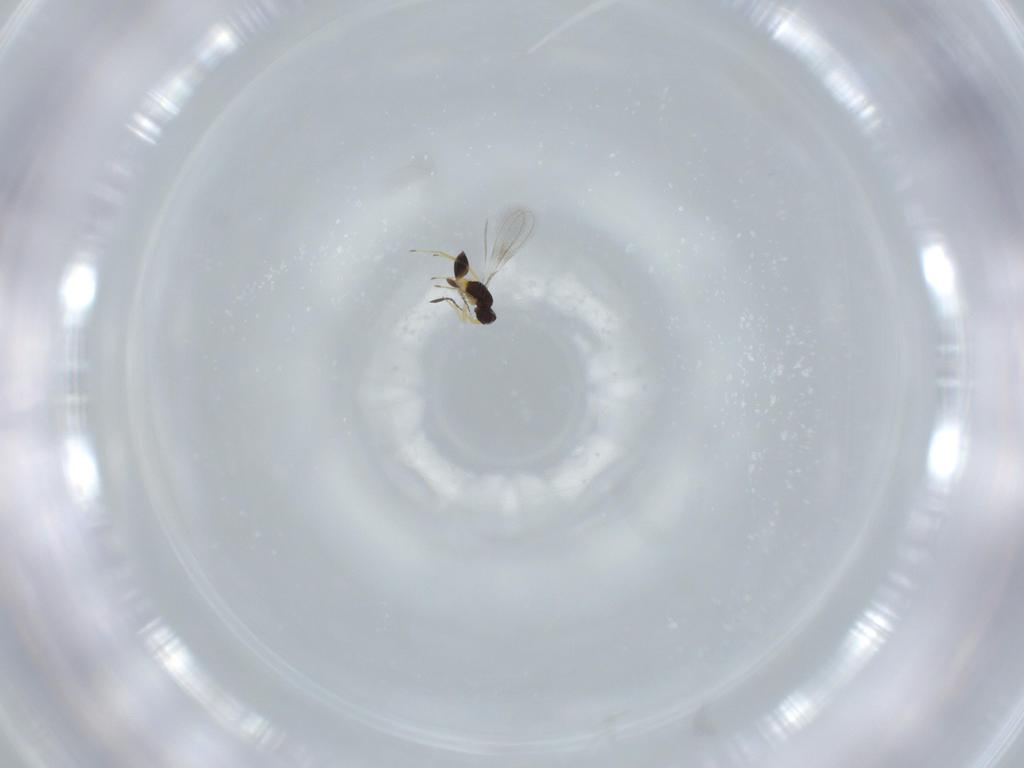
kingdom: Animalia
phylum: Arthropoda
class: Insecta
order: Hymenoptera
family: Mymaridae
